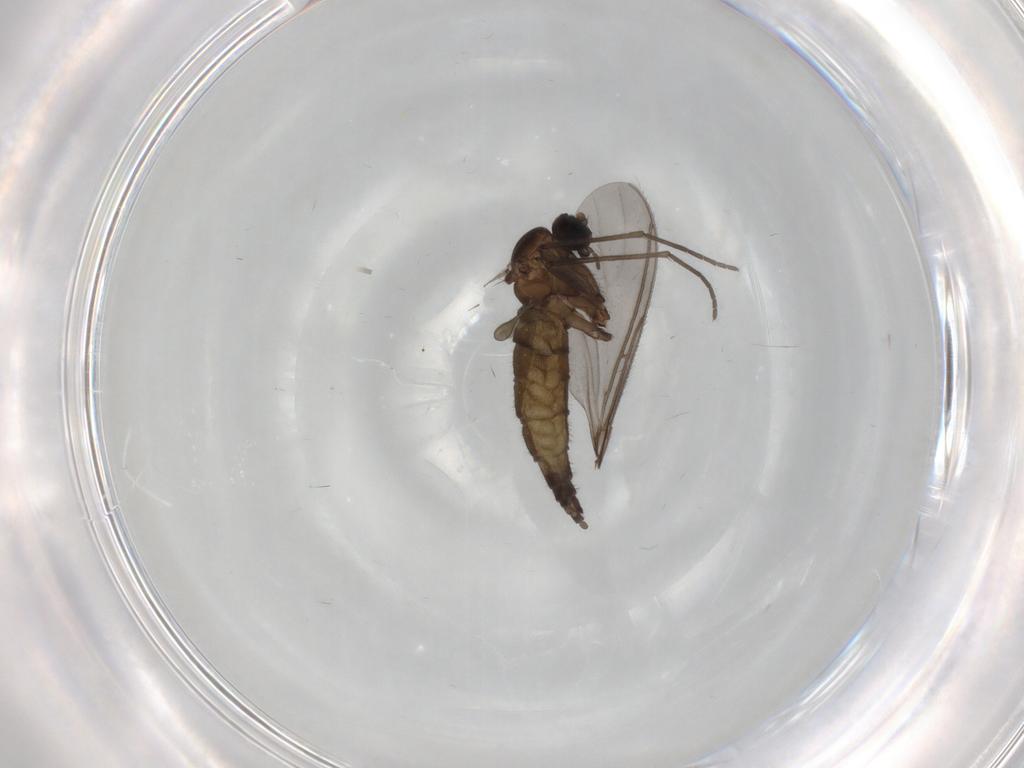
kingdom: Animalia
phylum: Arthropoda
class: Insecta
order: Diptera
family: Sciaridae
